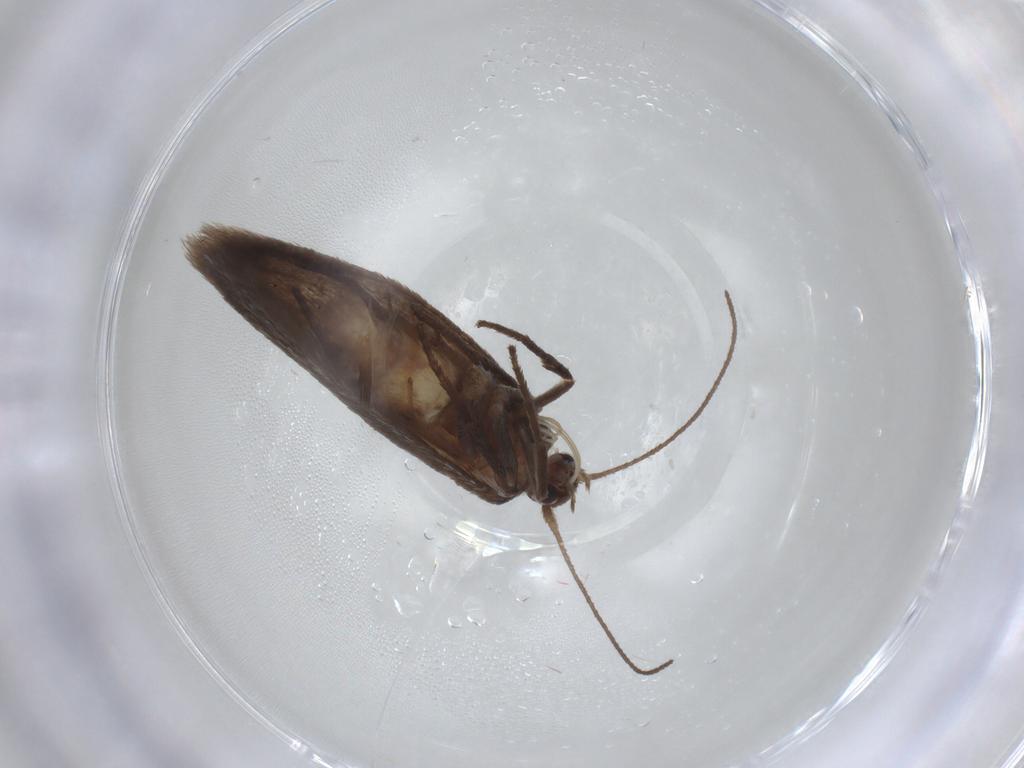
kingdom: Animalia
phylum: Arthropoda
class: Insecta
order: Lepidoptera
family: Limacodidae
